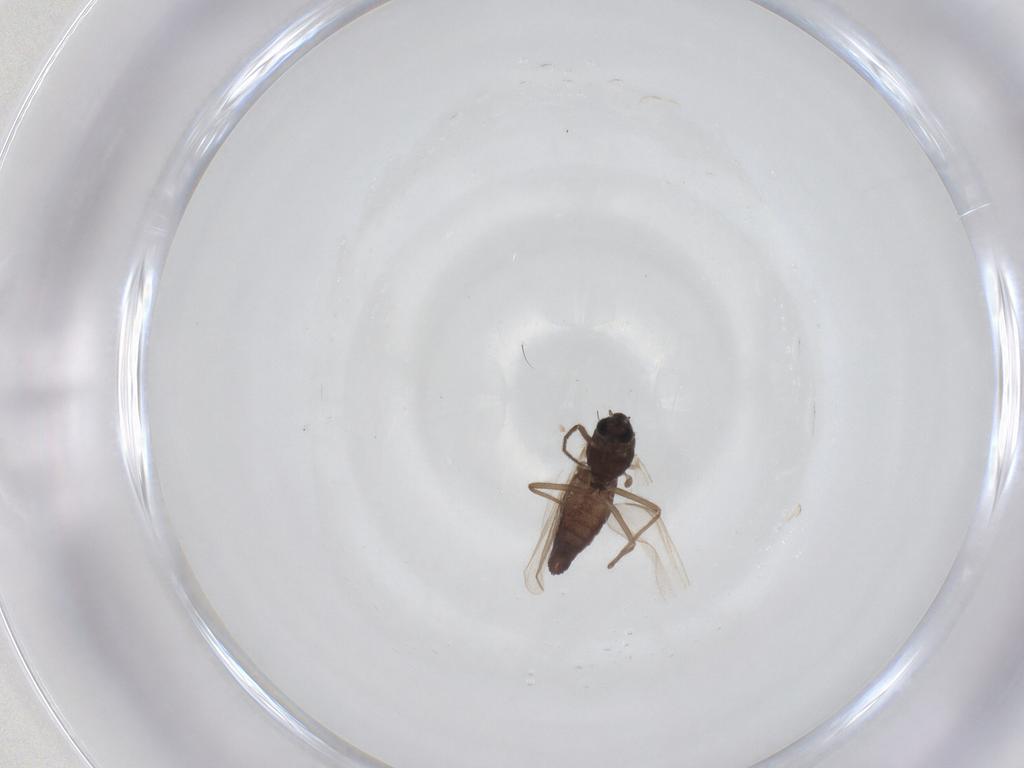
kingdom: Animalia
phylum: Arthropoda
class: Insecta
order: Diptera
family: Chironomidae
